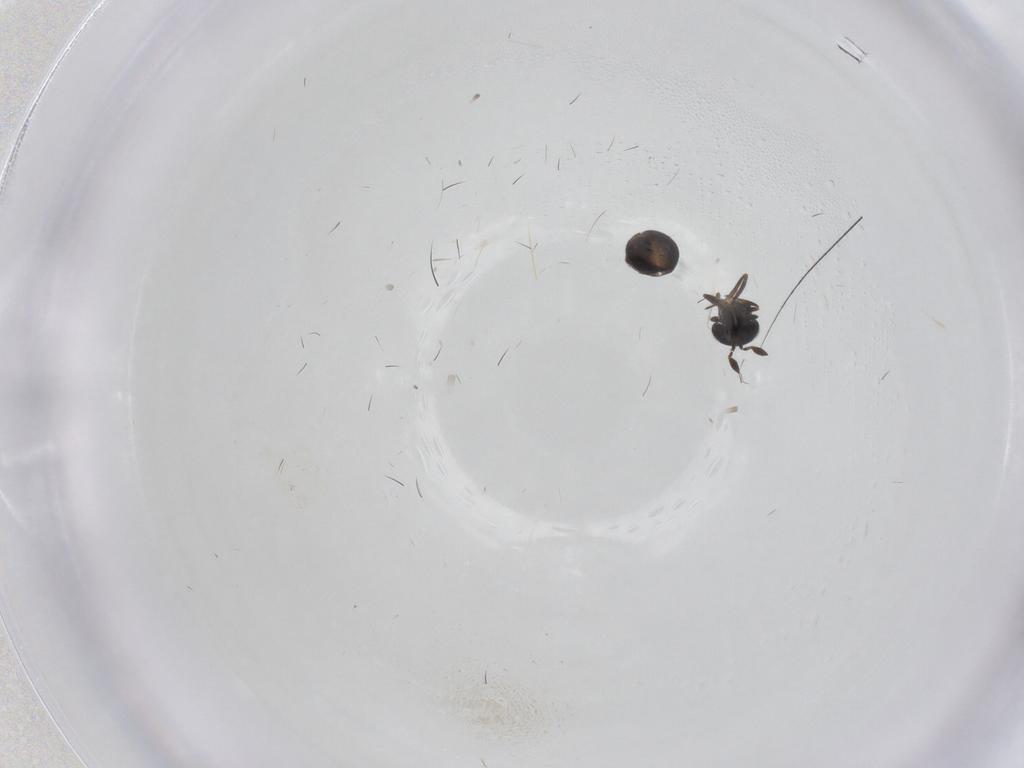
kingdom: Animalia
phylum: Arthropoda
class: Insecta
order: Hymenoptera
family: Scelionidae
